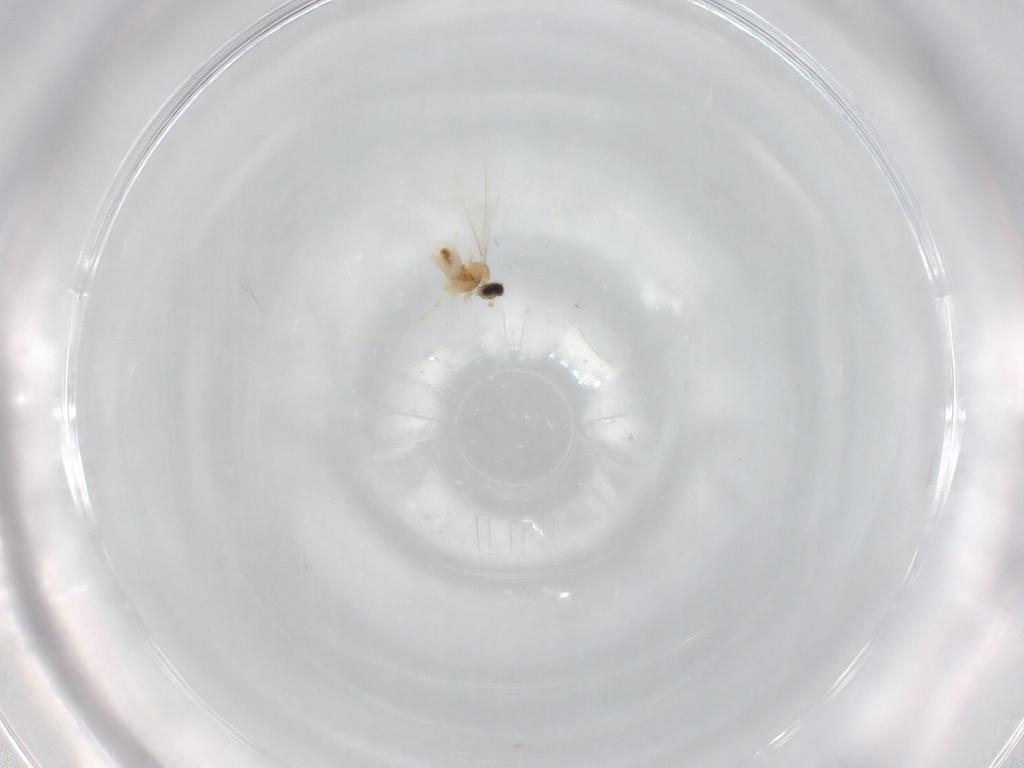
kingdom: Animalia
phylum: Arthropoda
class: Insecta
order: Diptera
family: Cecidomyiidae
